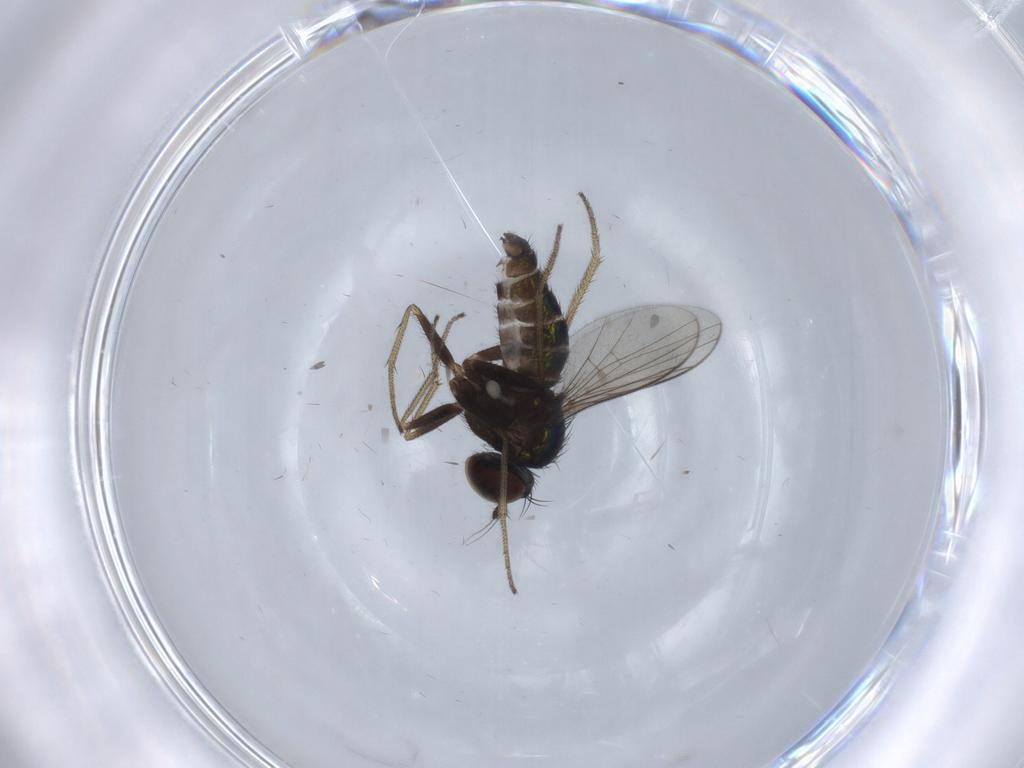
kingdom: Animalia
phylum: Arthropoda
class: Insecta
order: Diptera
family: Dolichopodidae
